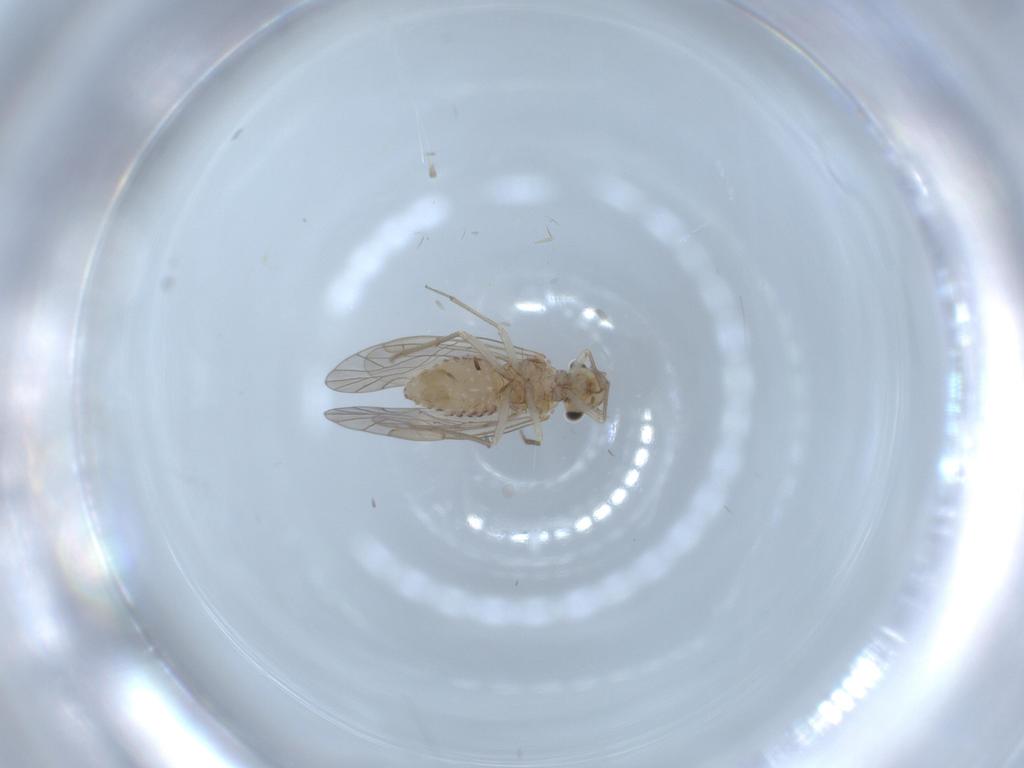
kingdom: Animalia
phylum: Arthropoda
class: Insecta
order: Psocodea
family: Lachesillidae
